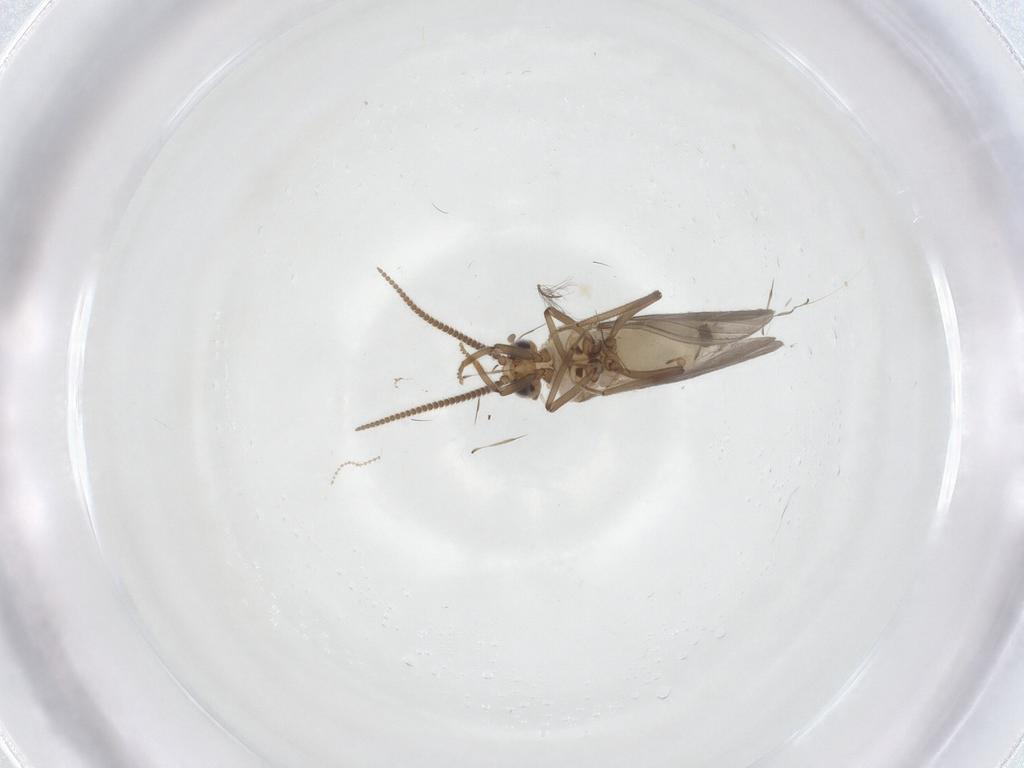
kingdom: Animalia
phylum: Arthropoda
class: Insecta
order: Neuroptera
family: Coniopterygidae
